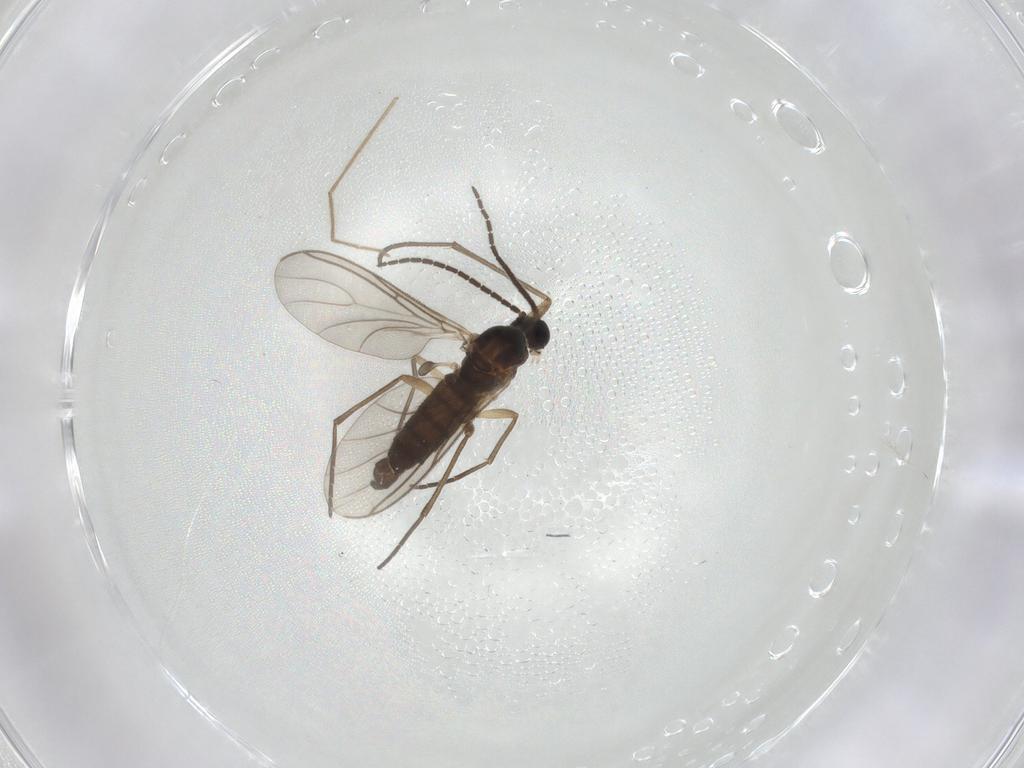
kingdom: Animalia
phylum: Arthropoda
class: Insecta
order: Diptera
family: Sciaridae
